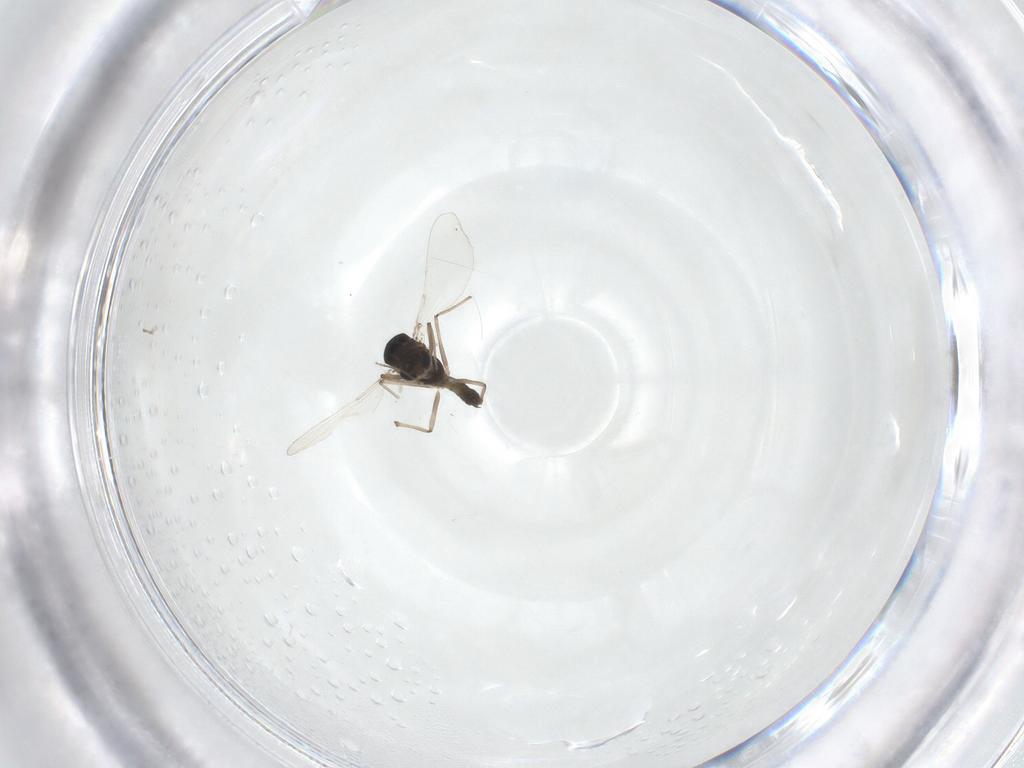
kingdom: Animalia
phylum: Arthropoda
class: Insecta
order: Diptera
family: Chironomidae
